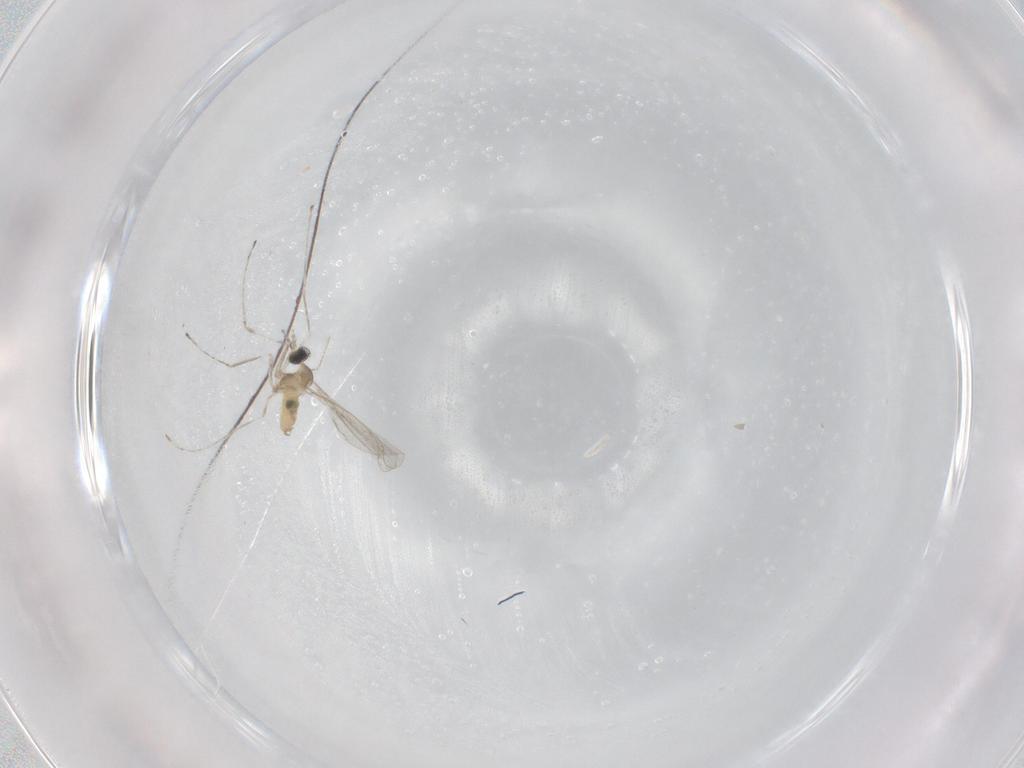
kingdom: Animalia
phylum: Arthropoda
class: Insecta
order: Diptera
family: Cecidomyiidae
